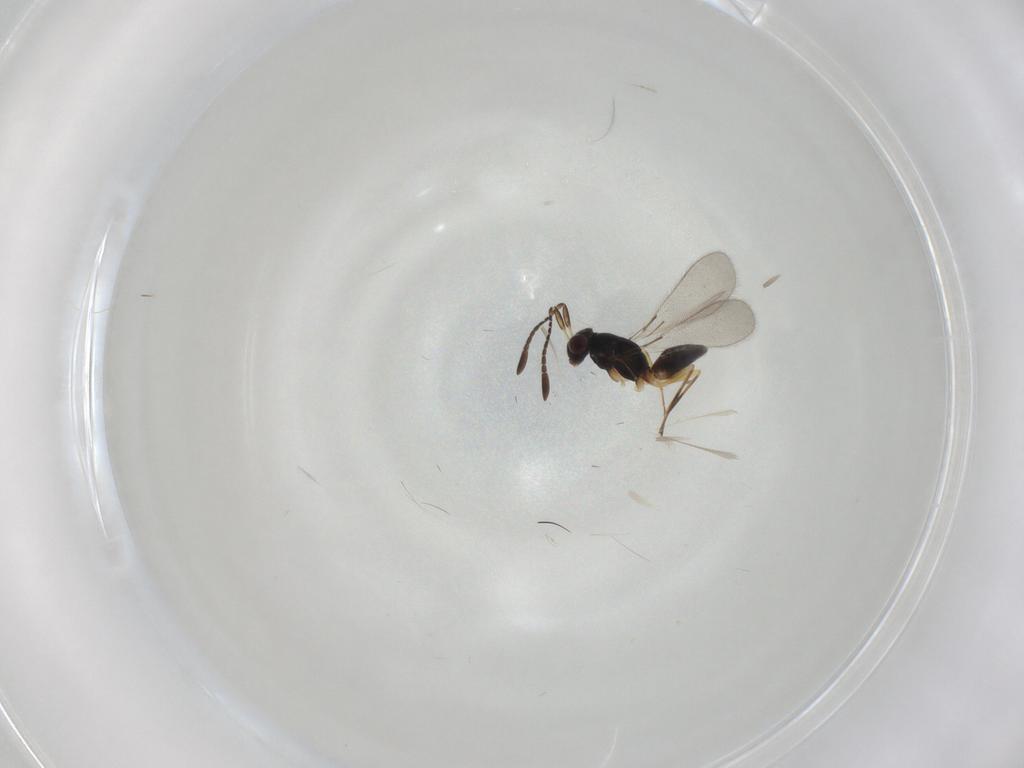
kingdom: Animalia
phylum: Arthropoda
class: Insecta
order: Hymenoptera
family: Mymaridae
